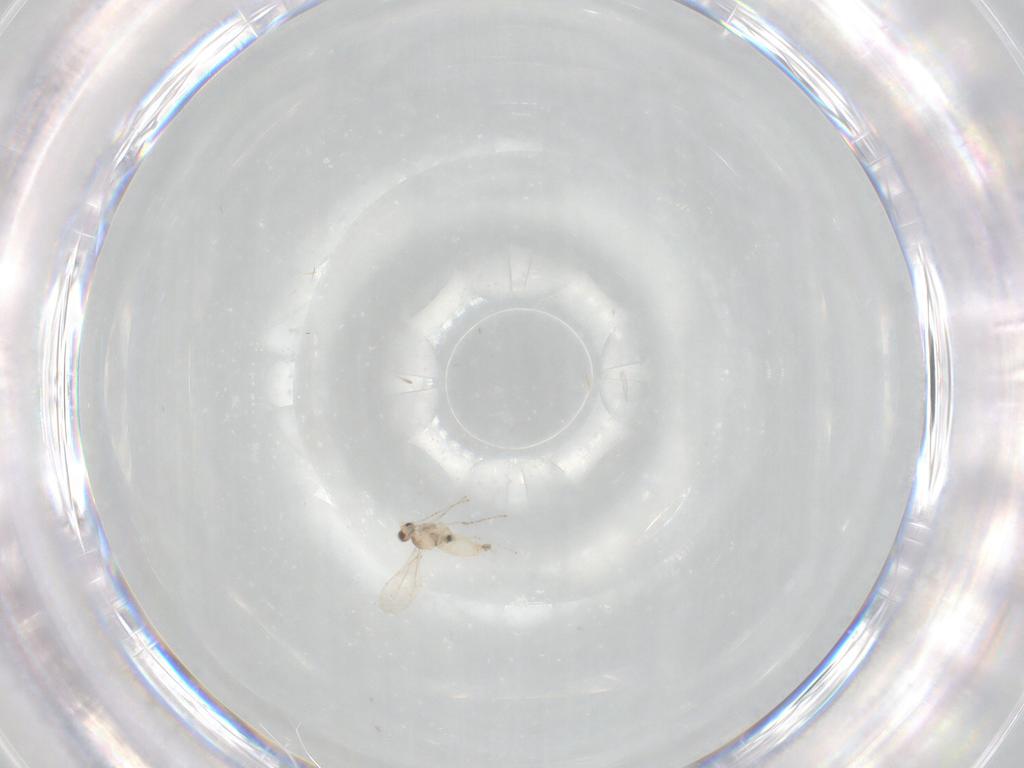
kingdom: Animalia
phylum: Arthropoda
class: Insecta
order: Diptera
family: Cecidomyiidae
